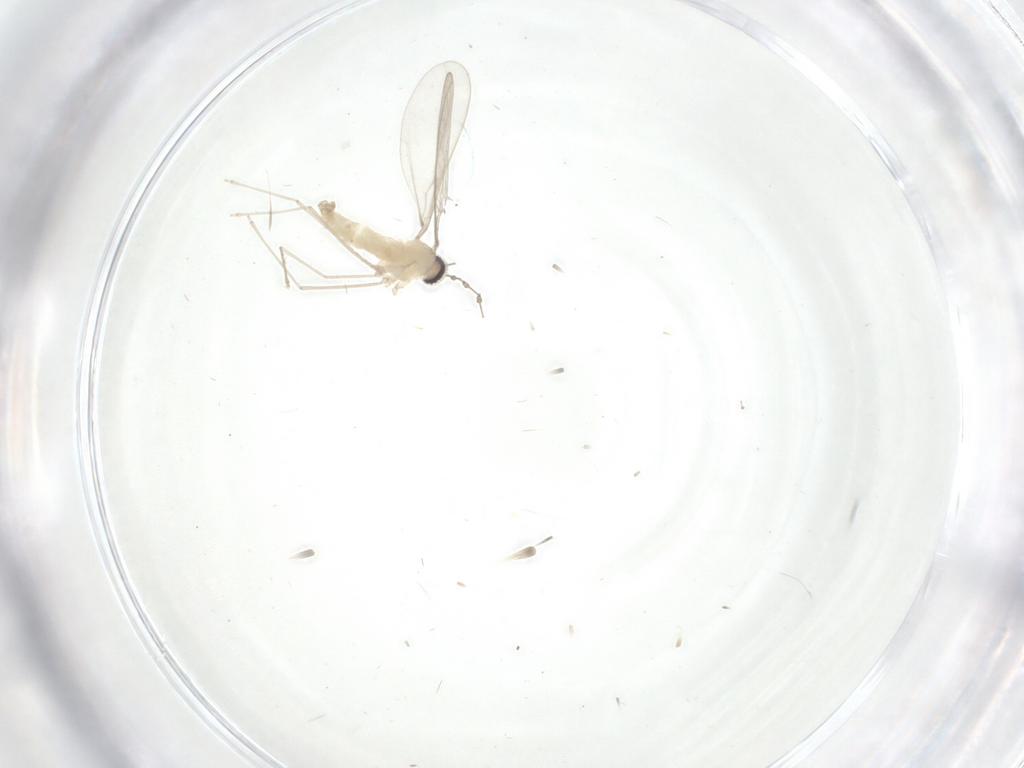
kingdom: Animalia
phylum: Arthropoda
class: Insecta
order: Diptera
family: Cecidomyiidae
